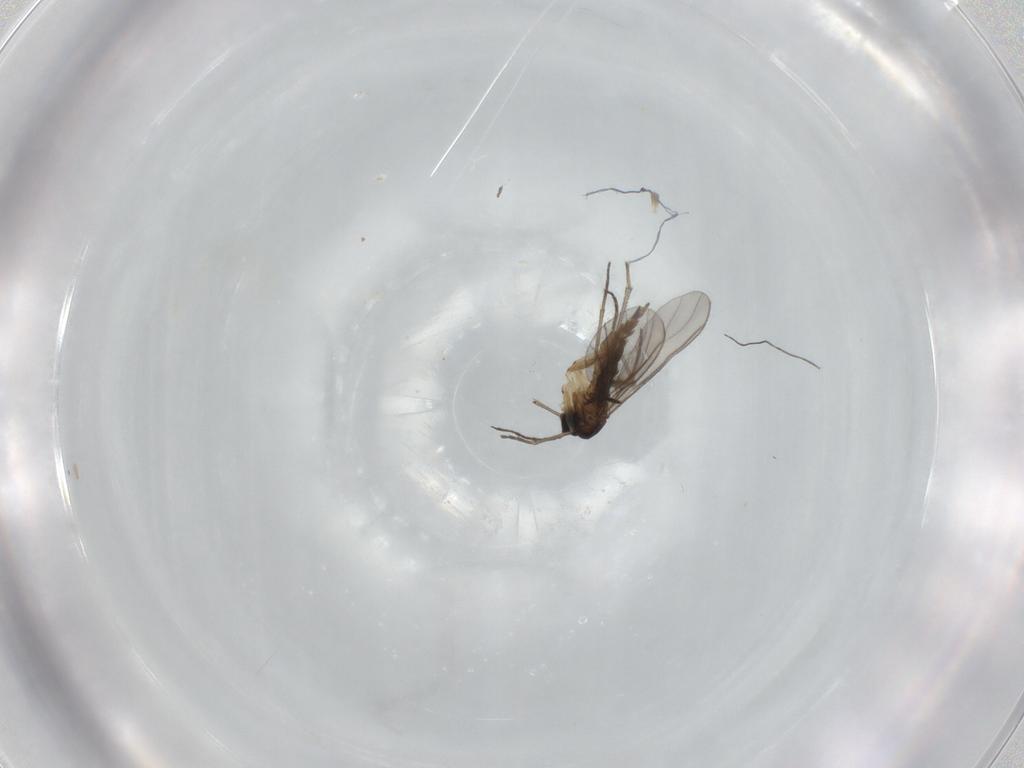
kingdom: Animalia
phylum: Arthropoda
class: Insecta
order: Diptera
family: Sciaridae
